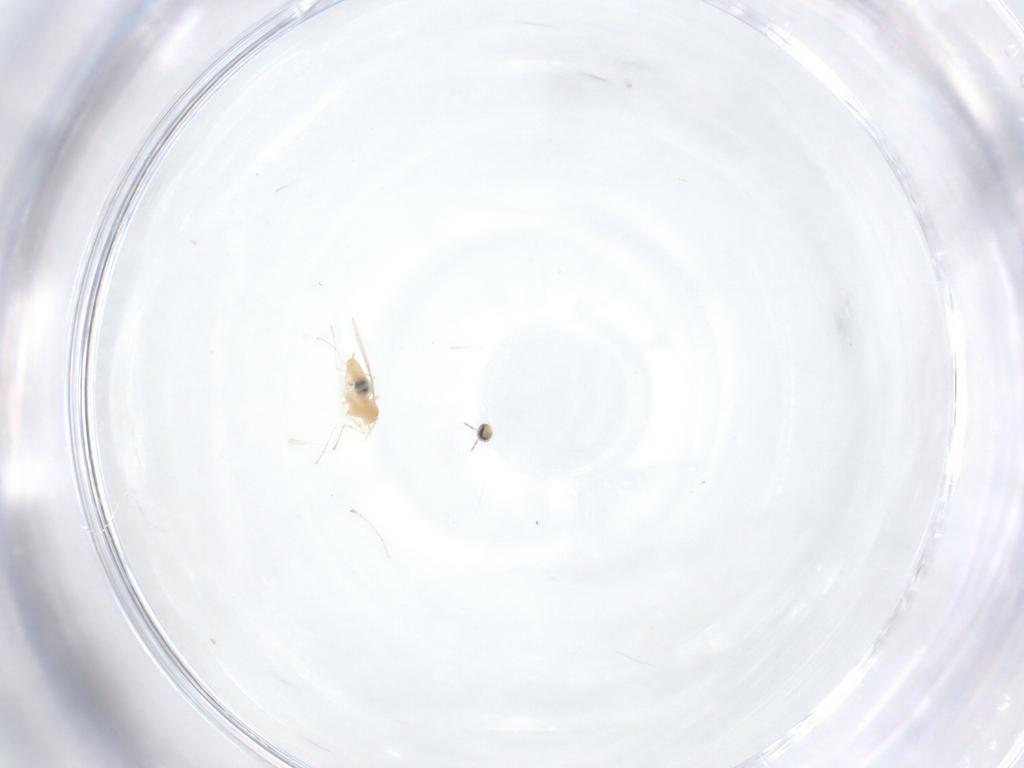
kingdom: Animalia
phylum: Arthropoda
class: Insecta
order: Diptera
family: Cecidomyiidae
